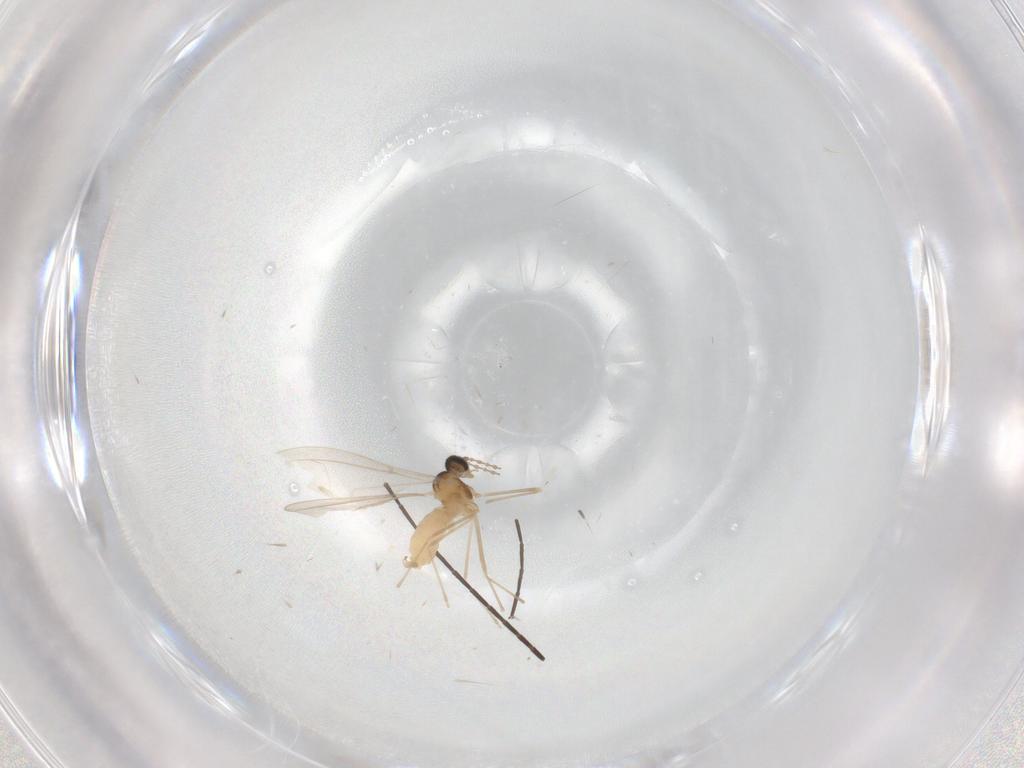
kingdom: Animalia
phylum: Arthropoda
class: Insecta
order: Diptera
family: Cecidomyiidae
